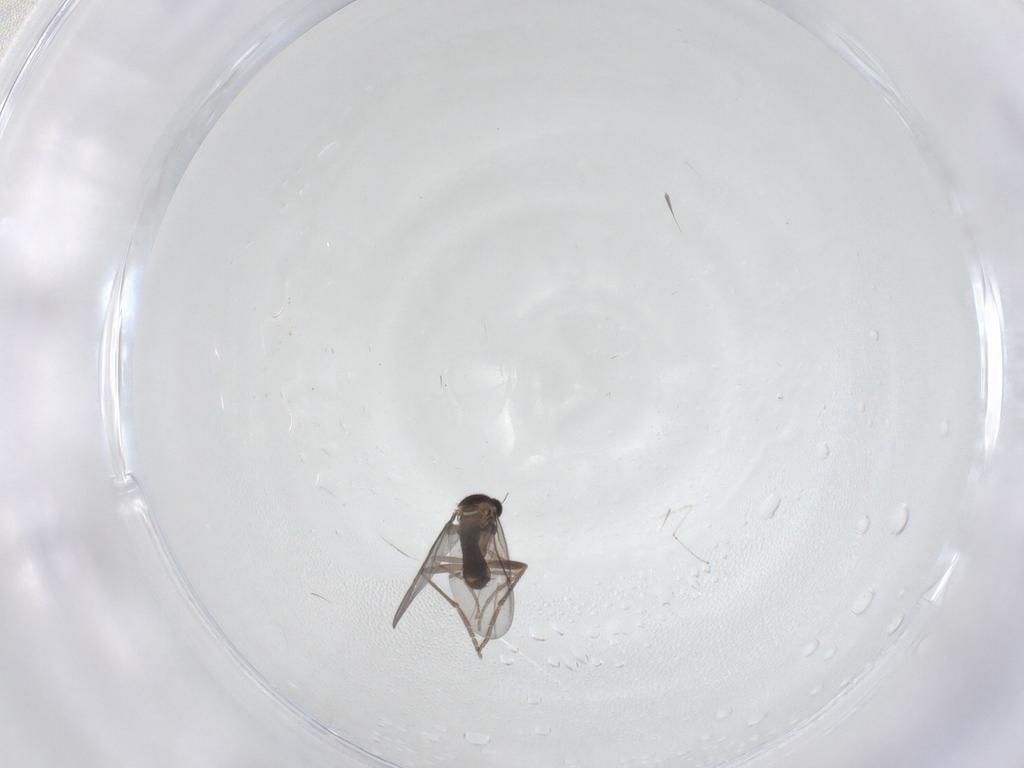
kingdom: Animalia
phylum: Arthropoda
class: Insecta
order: Diptera
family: Phoridae
